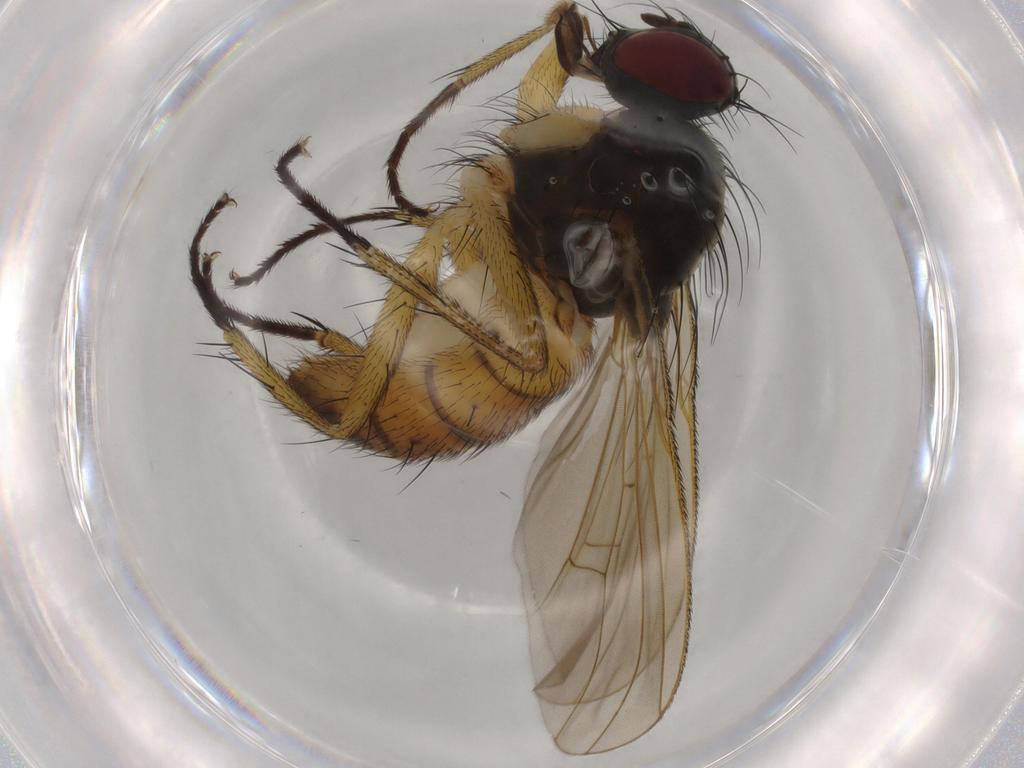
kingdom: Animalia
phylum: Arthropoda
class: Insecta
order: Diptera
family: Muscidae
